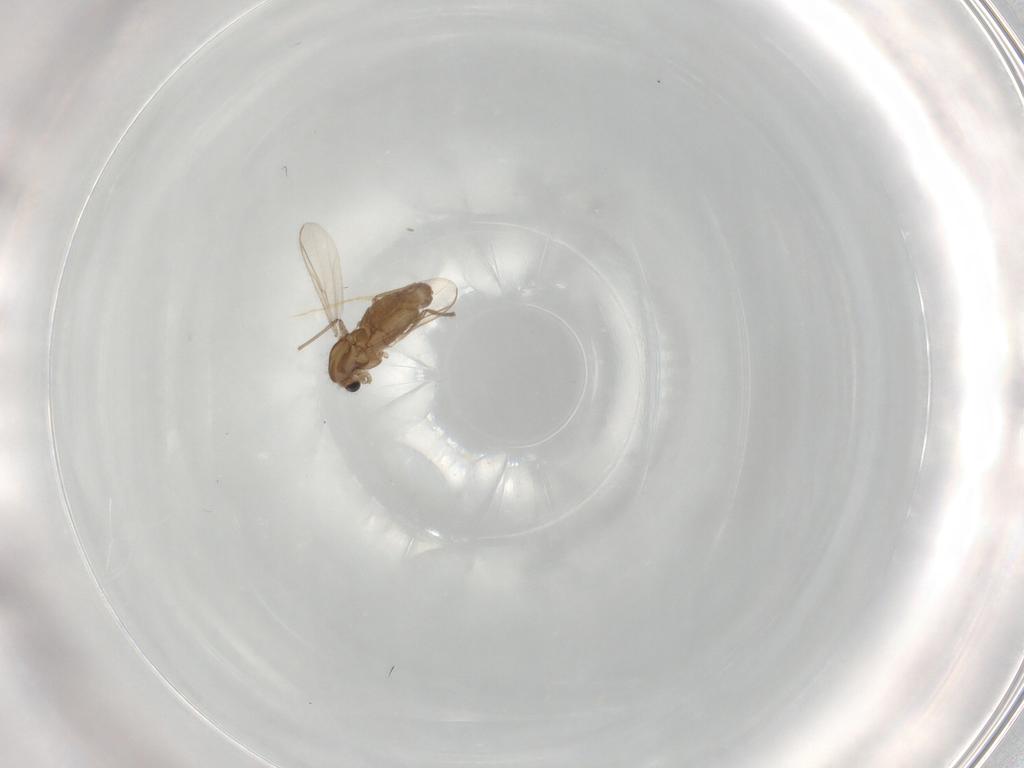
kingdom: Animalia
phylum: Arthropoda
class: Insecta
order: Diptera
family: Chironomidae
